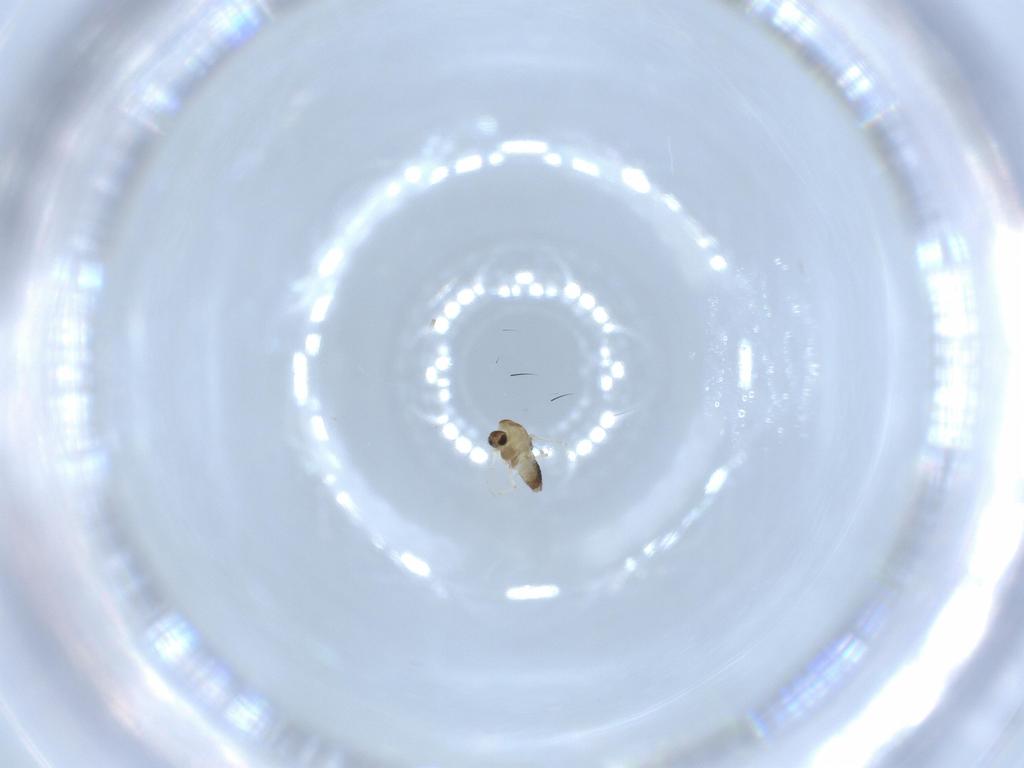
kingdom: Animalia
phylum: Arthropoda
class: Insecta
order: Diptera
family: Chironomidae
